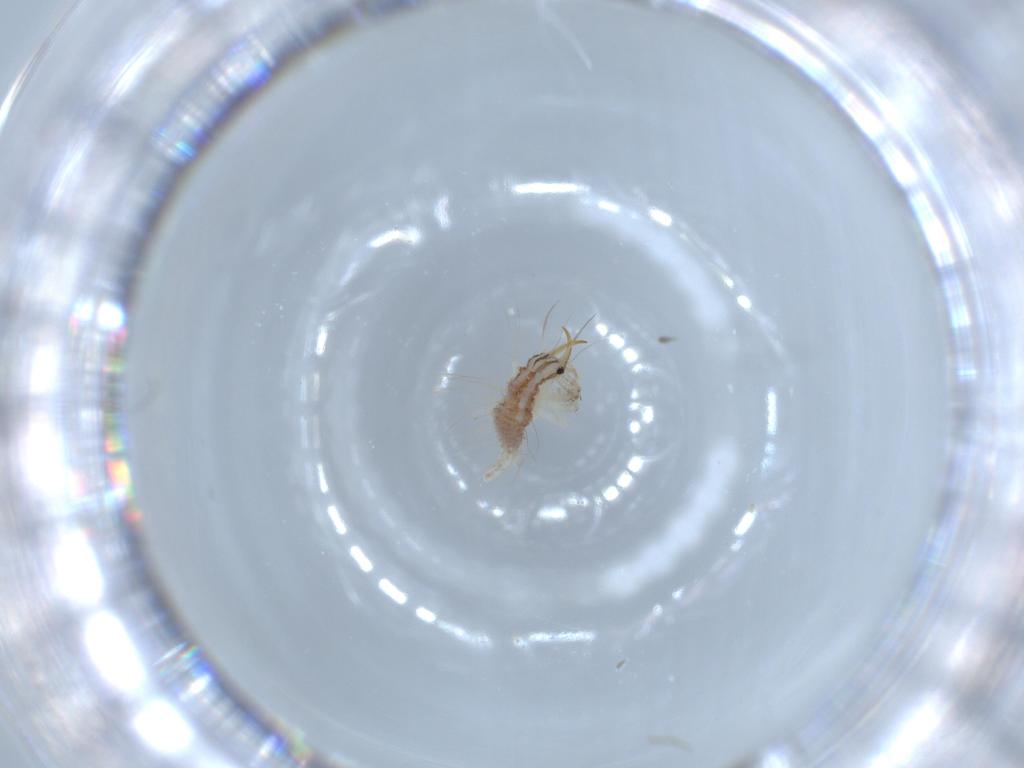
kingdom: Animalia
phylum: Arthropoda
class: Insecta
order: Neuroptera
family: Chrysopidae
